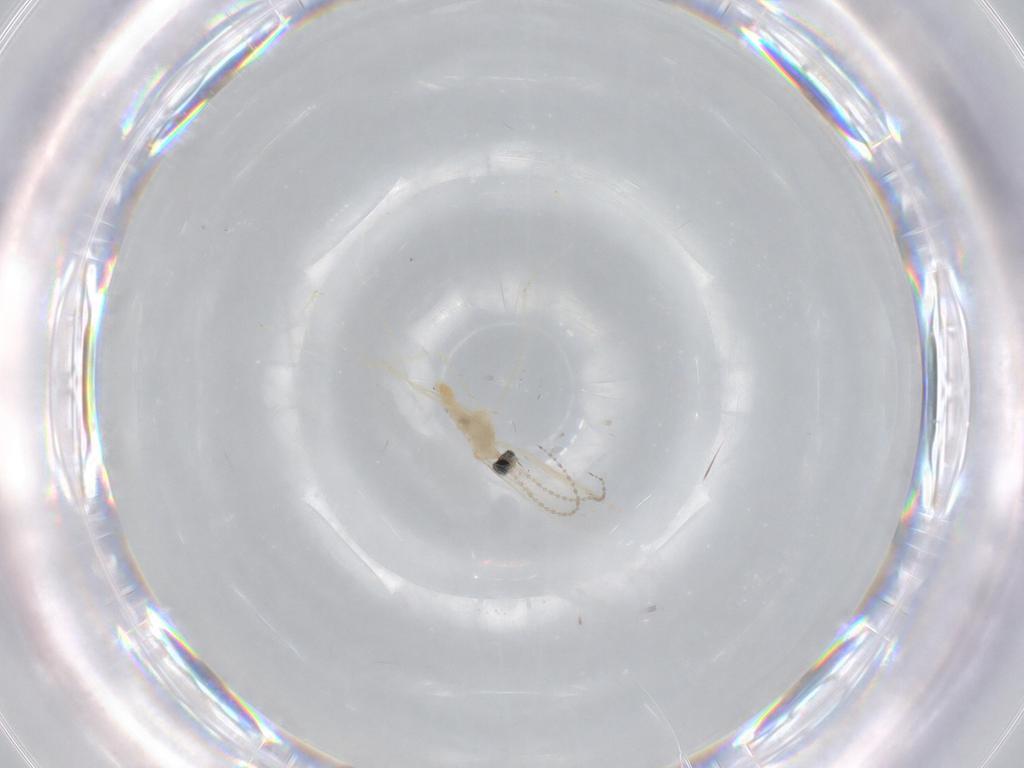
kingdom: Animalia
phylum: Arthropoda
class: Insecta
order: Diptera
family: Cecidomyiidae
